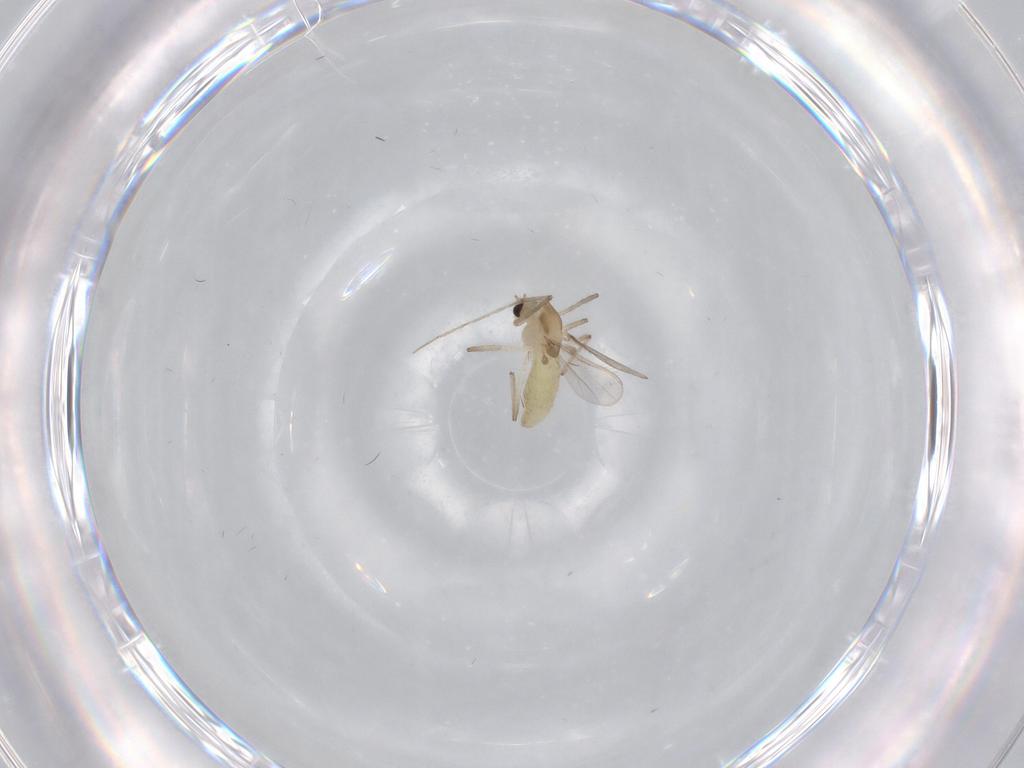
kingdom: Animalia
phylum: Arthropoda
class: Insecta
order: Diptera
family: Chironomidae
